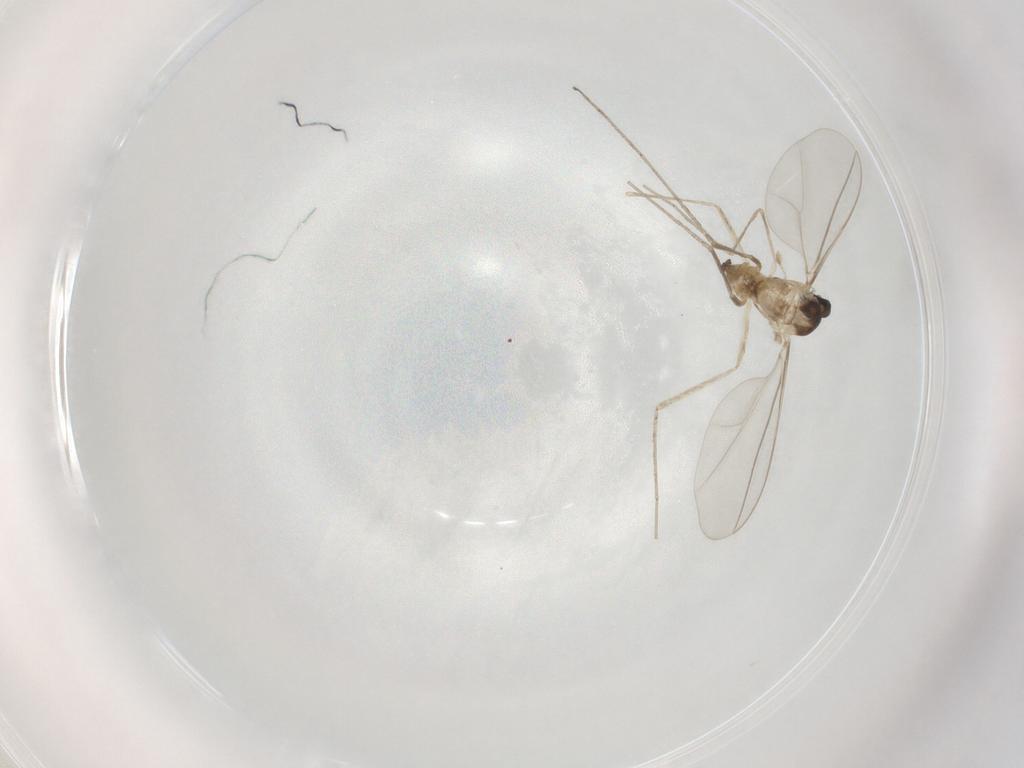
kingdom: Animalia
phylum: Arthropoda
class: Insecta
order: Diptera
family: Cecidomyiidae
